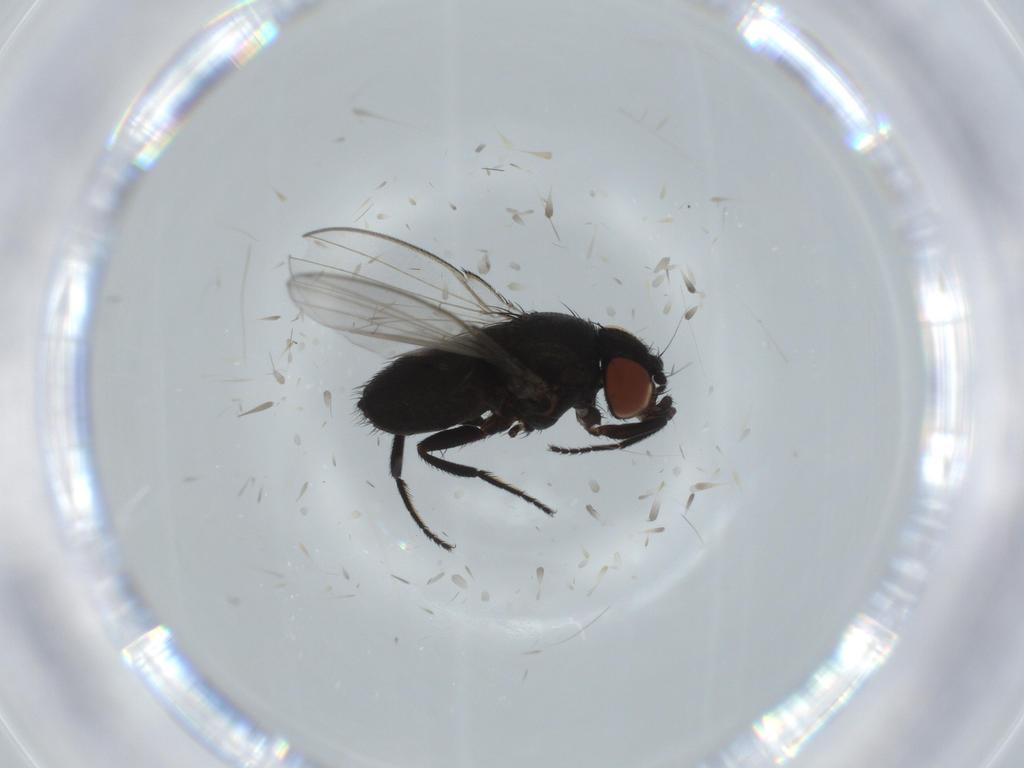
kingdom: Animalia
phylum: Arthropoda
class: Insecta
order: Diptera
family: Milichiidae
